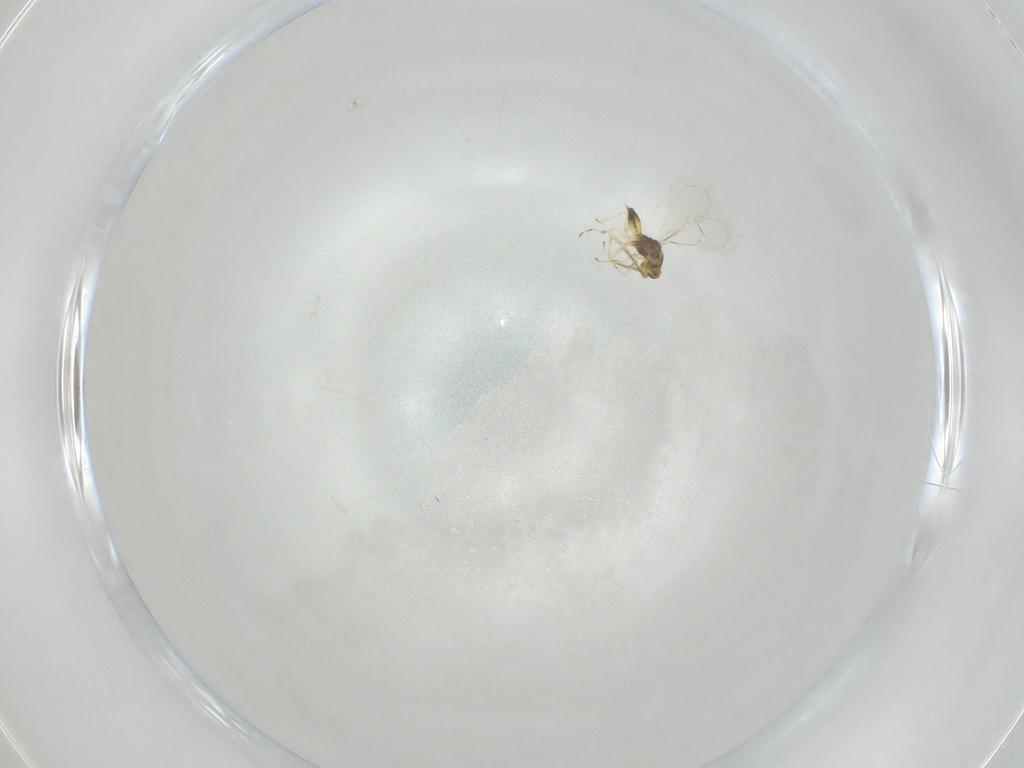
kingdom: Animalia
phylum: Arthropoda
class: Insecta
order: Hymenoptera
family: Eulophidae
